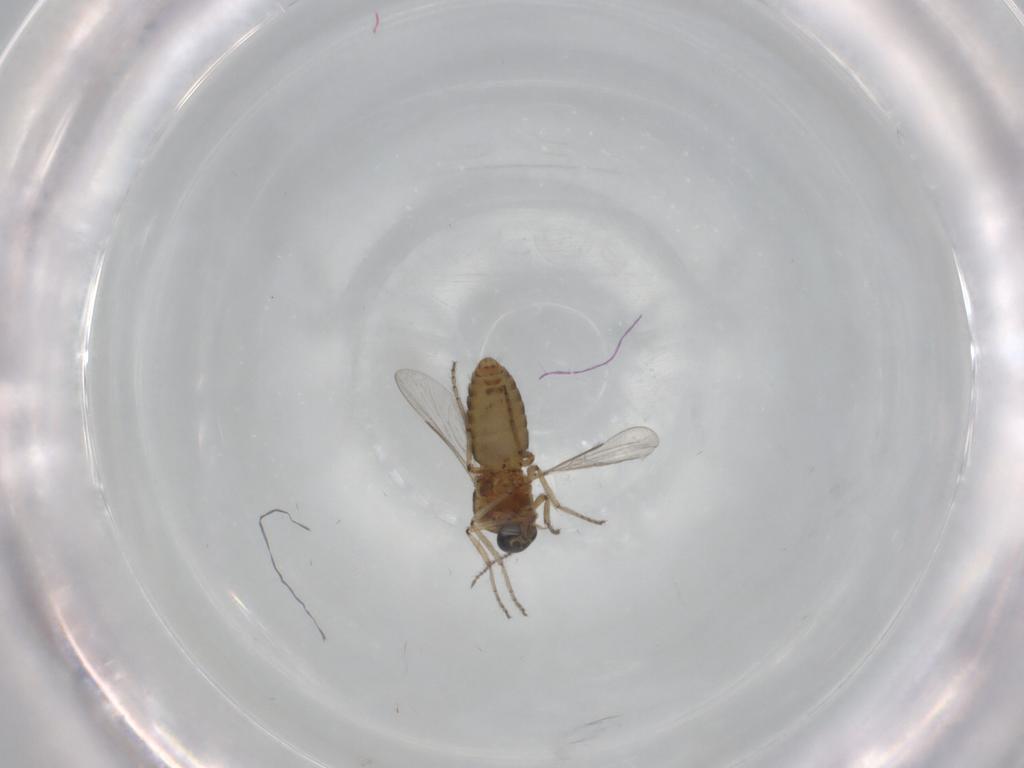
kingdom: Animalia
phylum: Arthropoda
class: Insecta
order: Diptera
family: Ceratopogonidae
